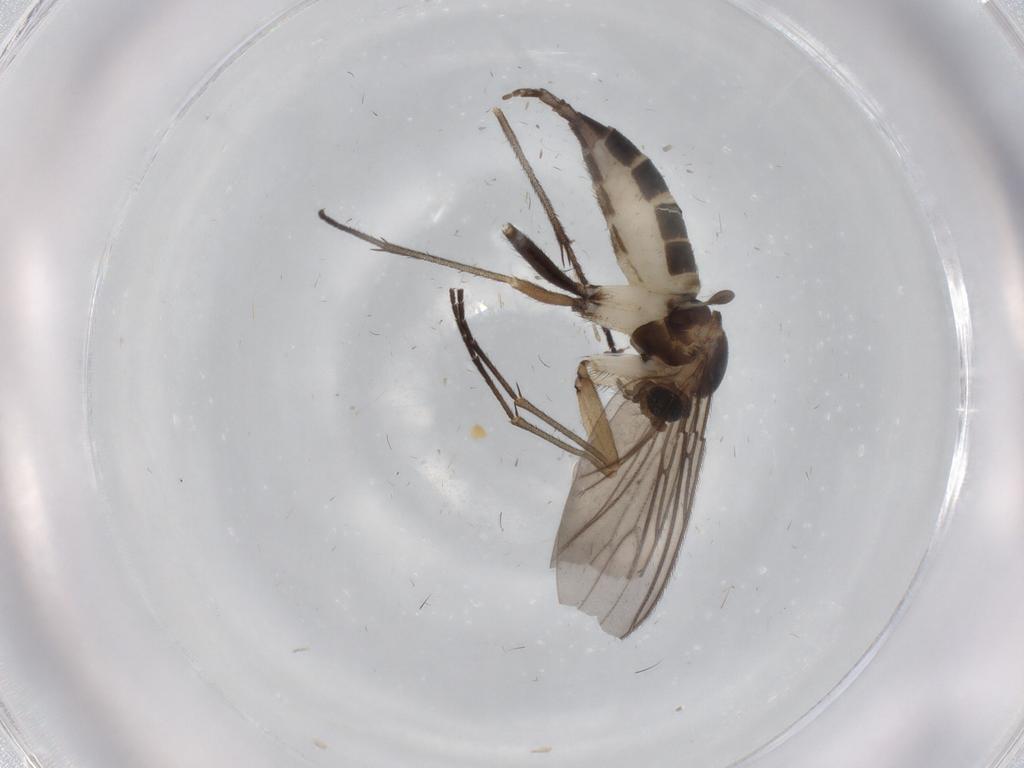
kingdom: Animalia
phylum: Arthropoda
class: Insecta
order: Diptera
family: Sciaridae
